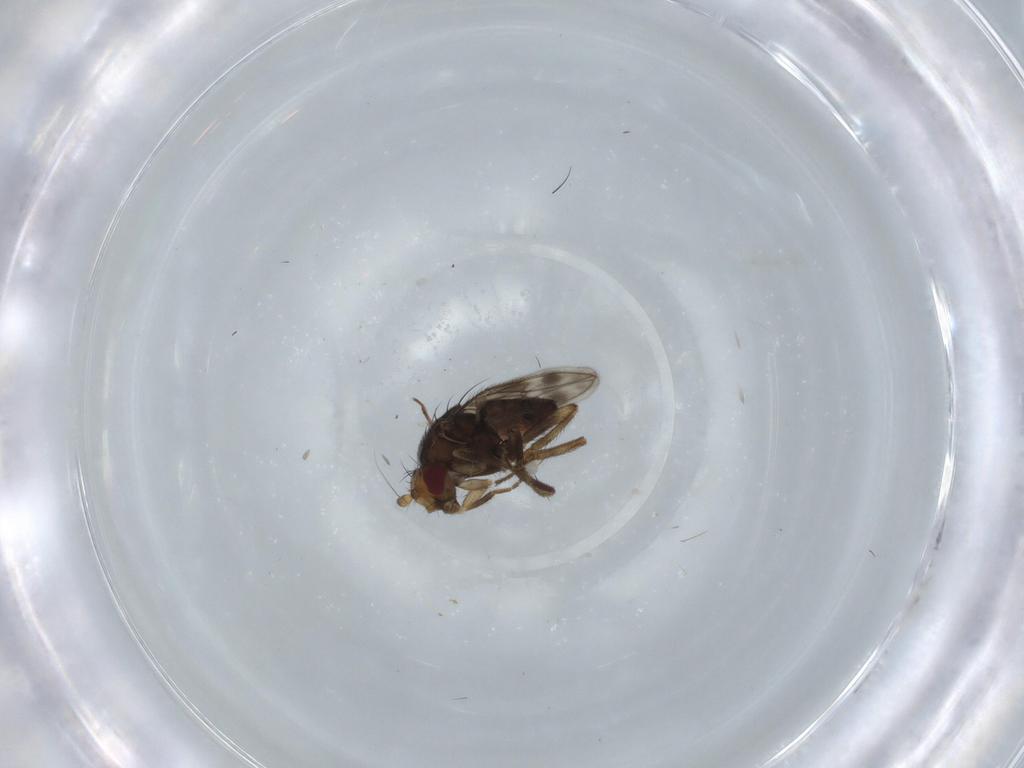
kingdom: Animalia
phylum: Arthropoda
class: Insecta
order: Diptera
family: Sphaeroceridae
